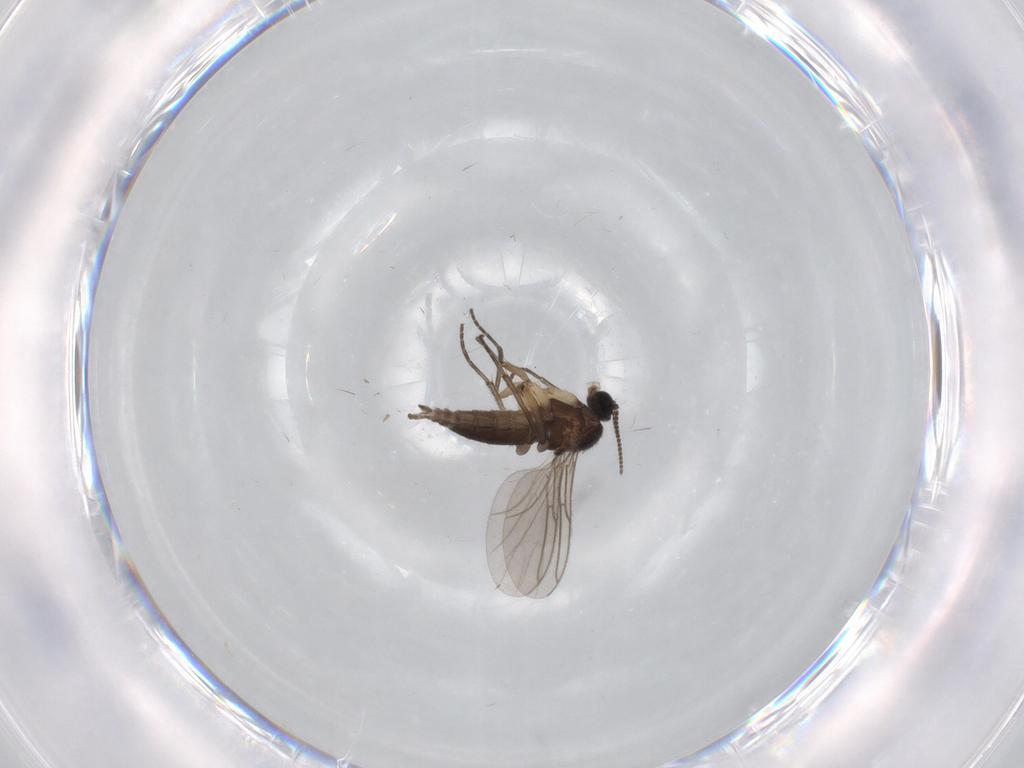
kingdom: Animalia
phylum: Arthropoda
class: Insecta
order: Diptera
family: Sciaridae
